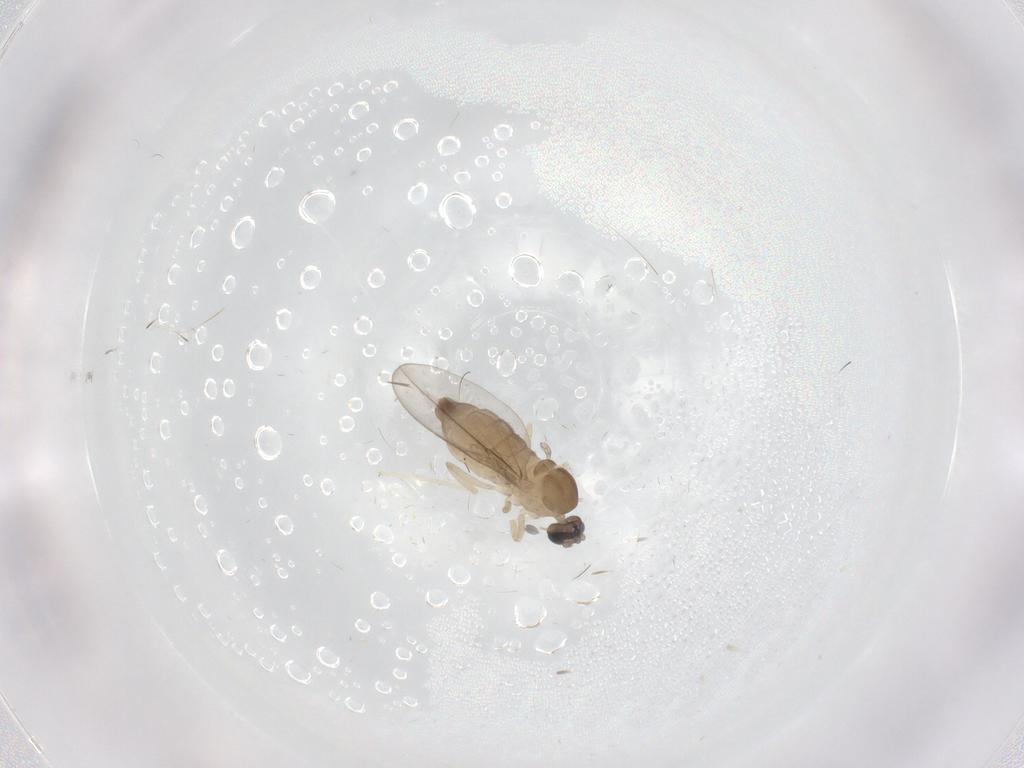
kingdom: Animalia
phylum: Arthropoda
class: Insecta
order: Diptera
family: Cecidomyiidae
